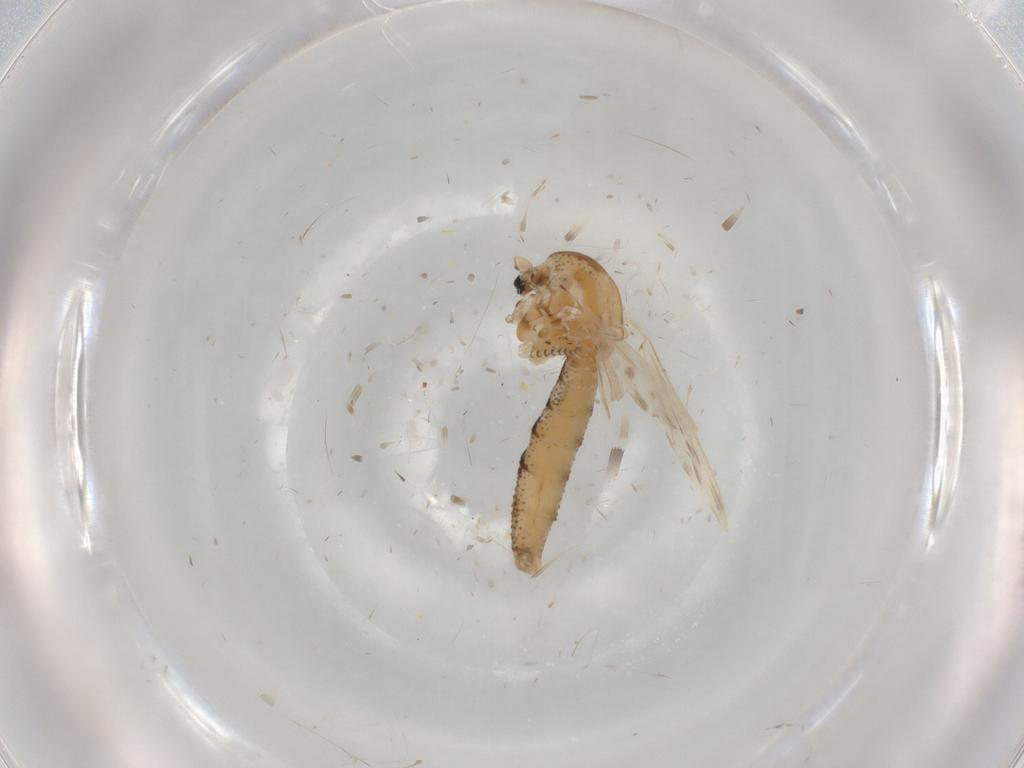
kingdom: Animalia
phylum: Arthropoda
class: Insecta
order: Diptera
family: Chaoboridae
